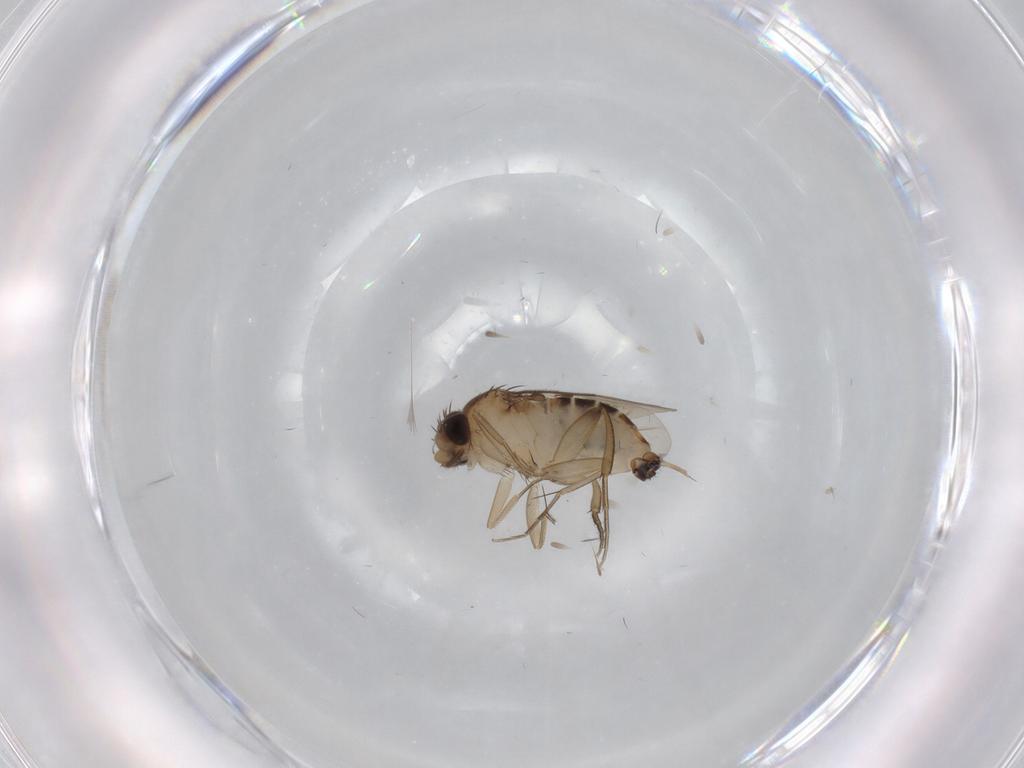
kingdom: Animalia
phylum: Arthropoda
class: Insecta
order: Diptera
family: Phoridae
